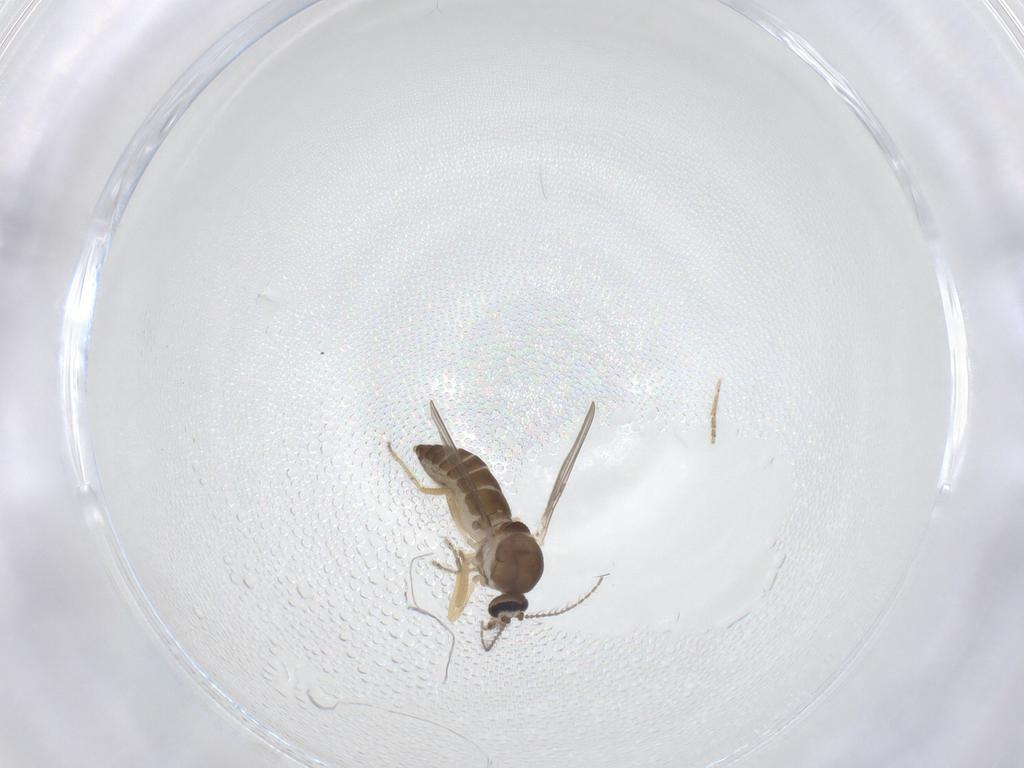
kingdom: Animalia
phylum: Arthropoda
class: Insecta
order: Diptera
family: Ceratopogonidae
